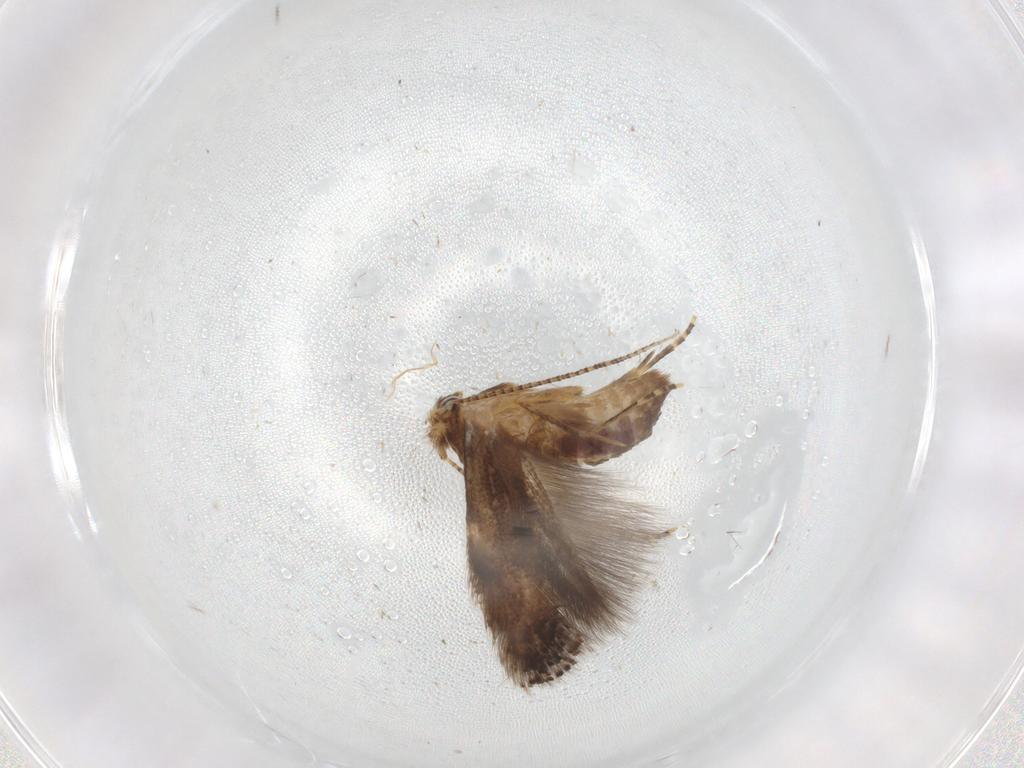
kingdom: Animalia
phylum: Arthropoda
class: Insecta
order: Lepidoptera
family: Bucculatricidae
